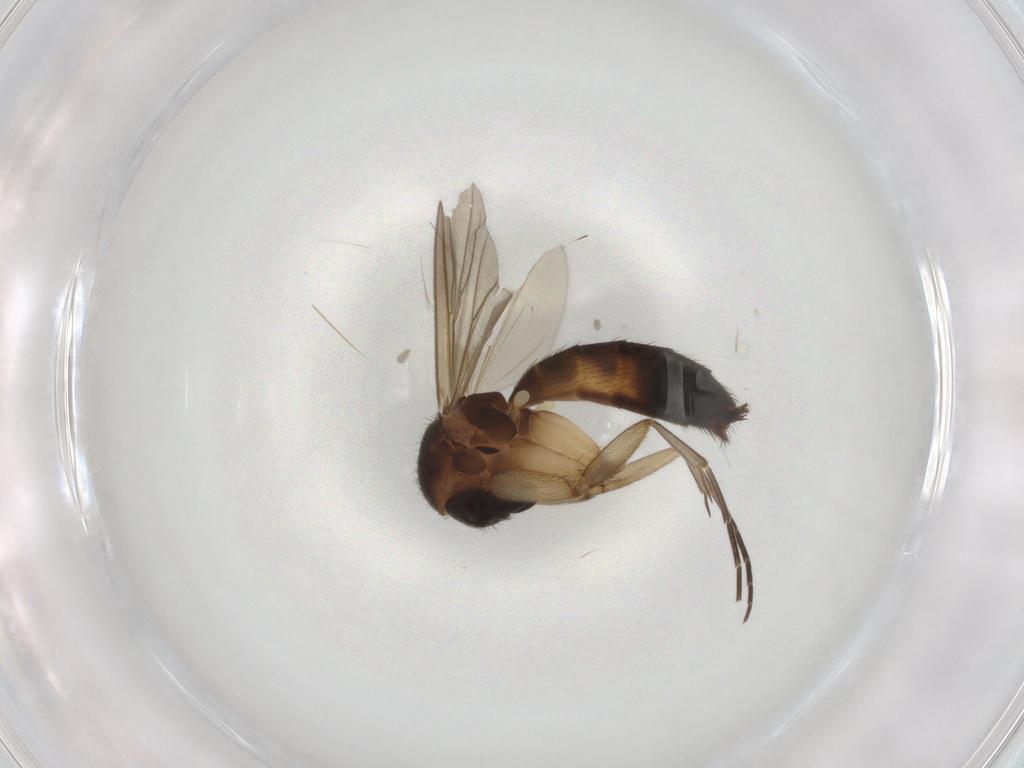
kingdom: Animalia
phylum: Arthropoda
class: Insecta
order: Diptera
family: Mycetophilidae
